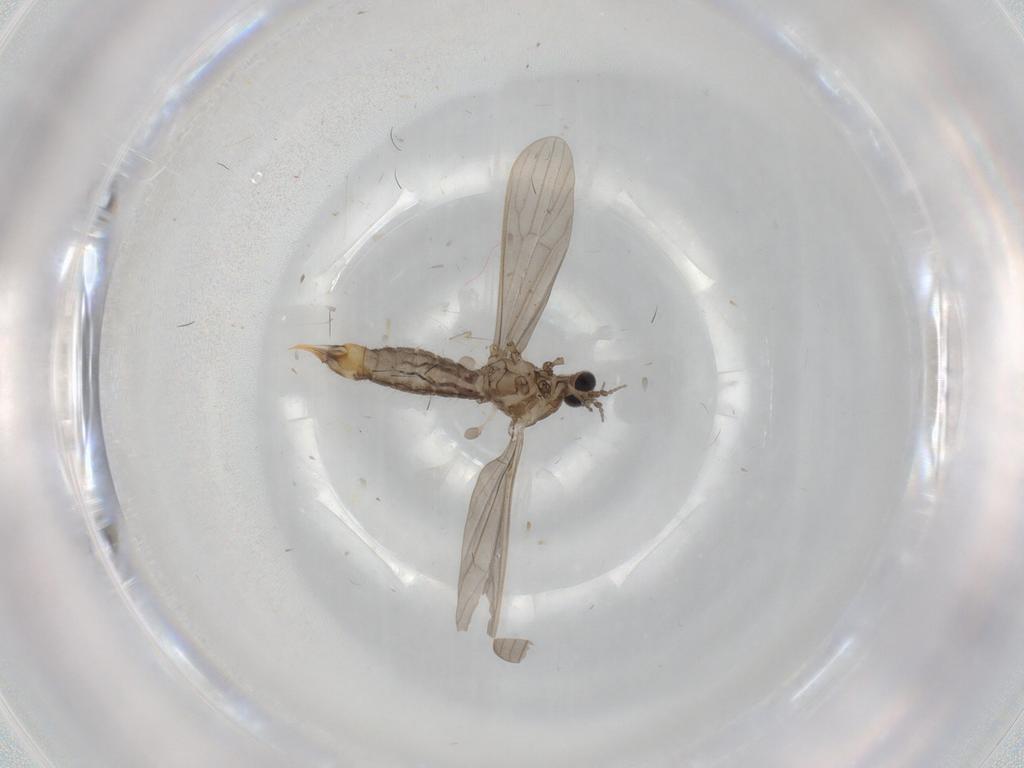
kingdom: Animalia
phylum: Arthropoda
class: Insecta
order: Diptera
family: Limoniidae
